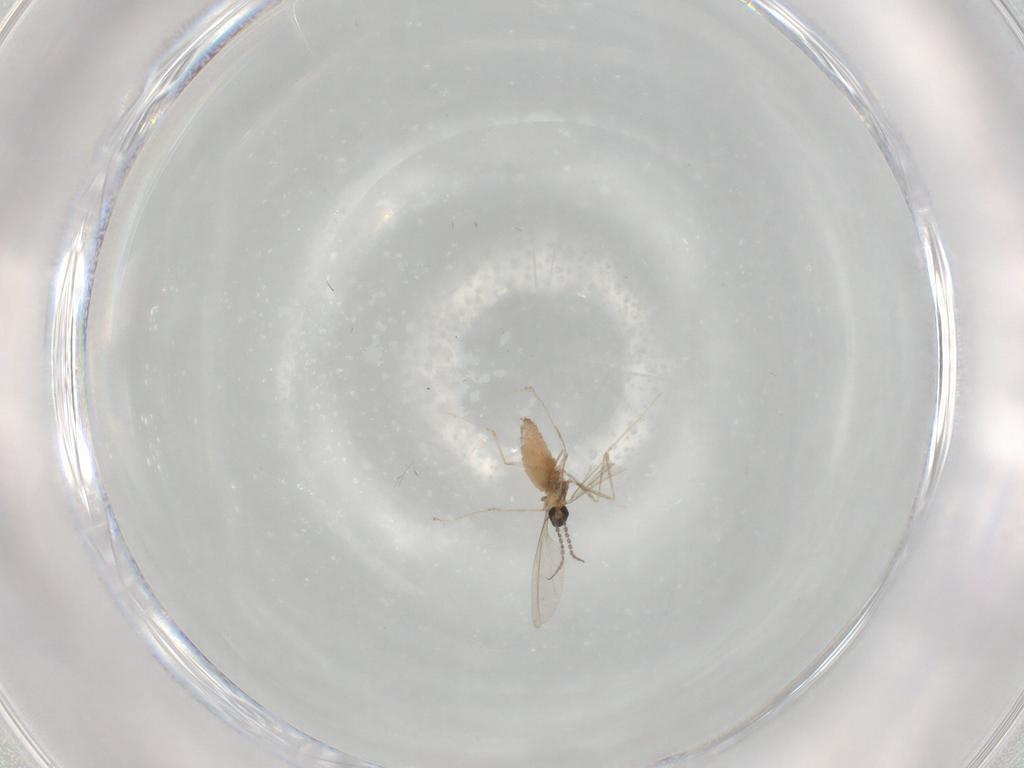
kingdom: Animalia
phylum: Arthropoda
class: Insecta
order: Diptera
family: Cecidomyiidae
